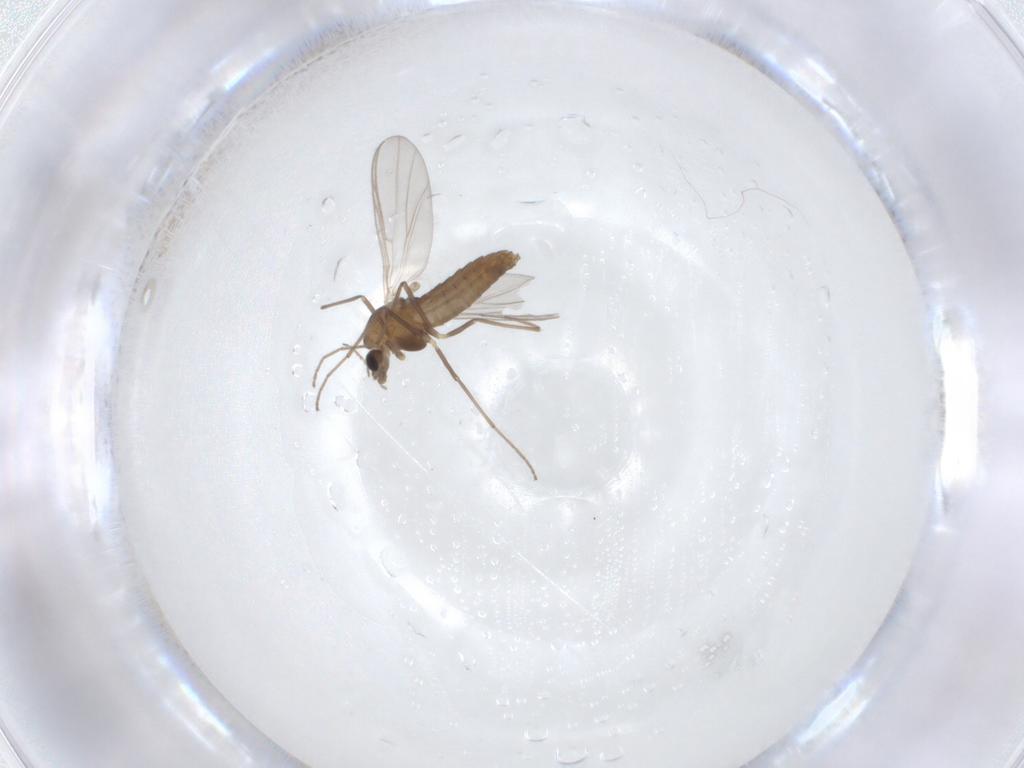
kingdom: Animalia
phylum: Arthropoda
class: Insecta
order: Diptera
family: Chironomidae
